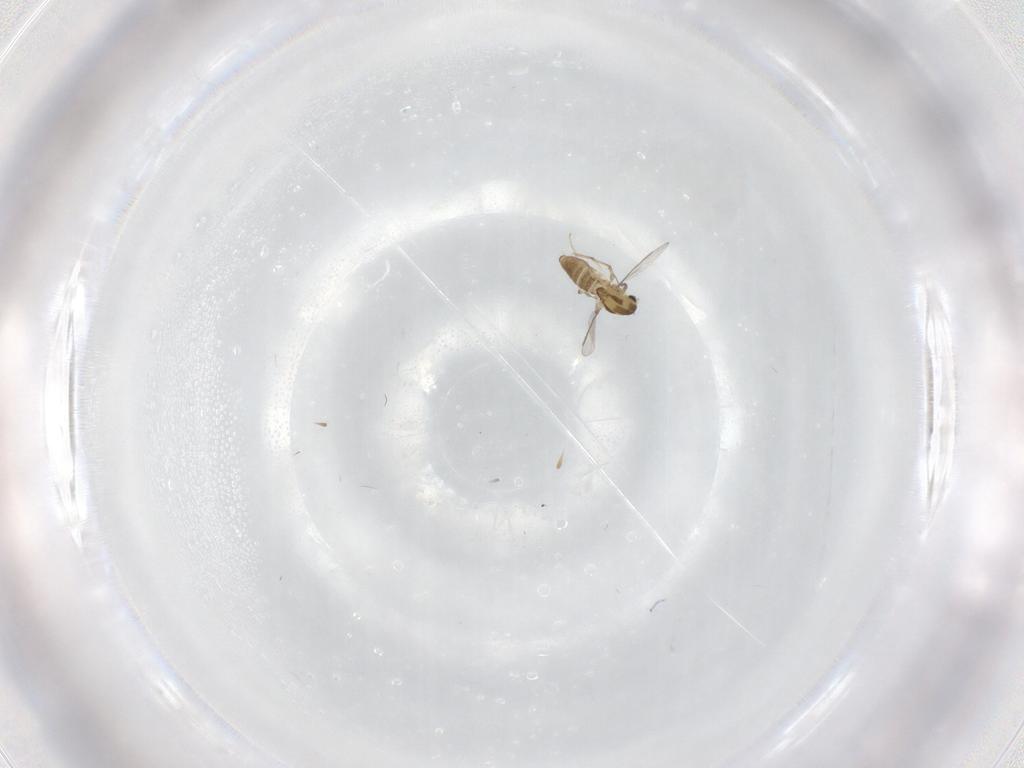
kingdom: Animalia
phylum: Arthropoda
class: Insecta
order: Diptera
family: Chironomidae
